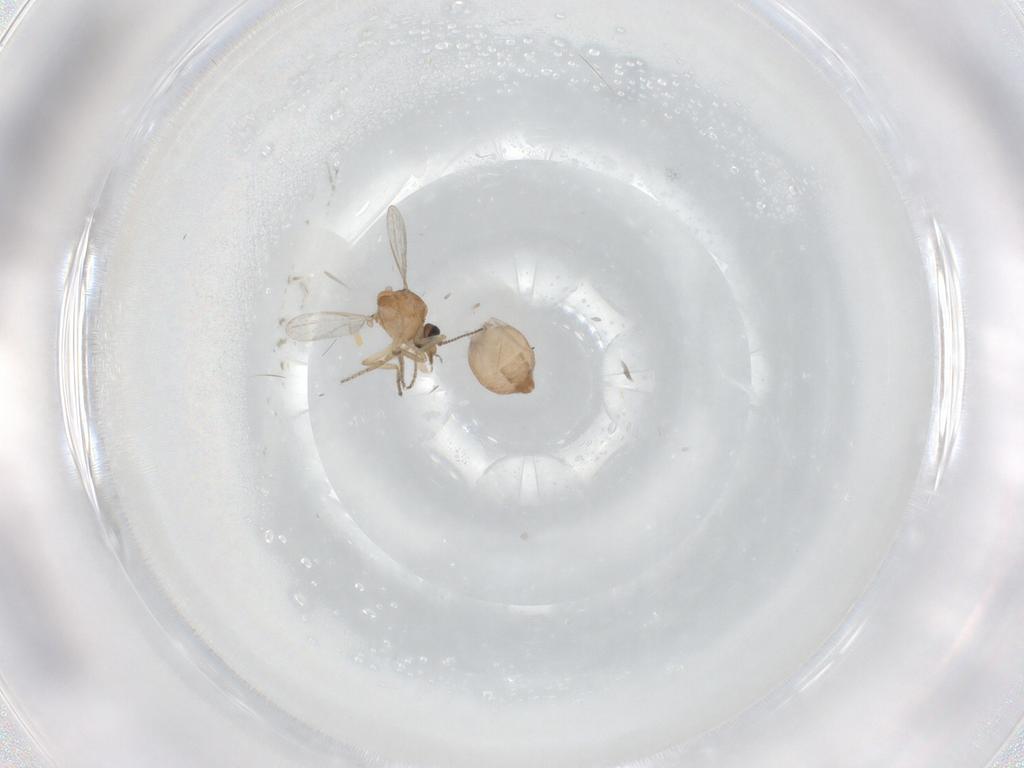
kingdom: Animalia
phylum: Arthropoda
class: Insecta
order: Diptera
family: Ceratopogonidae
